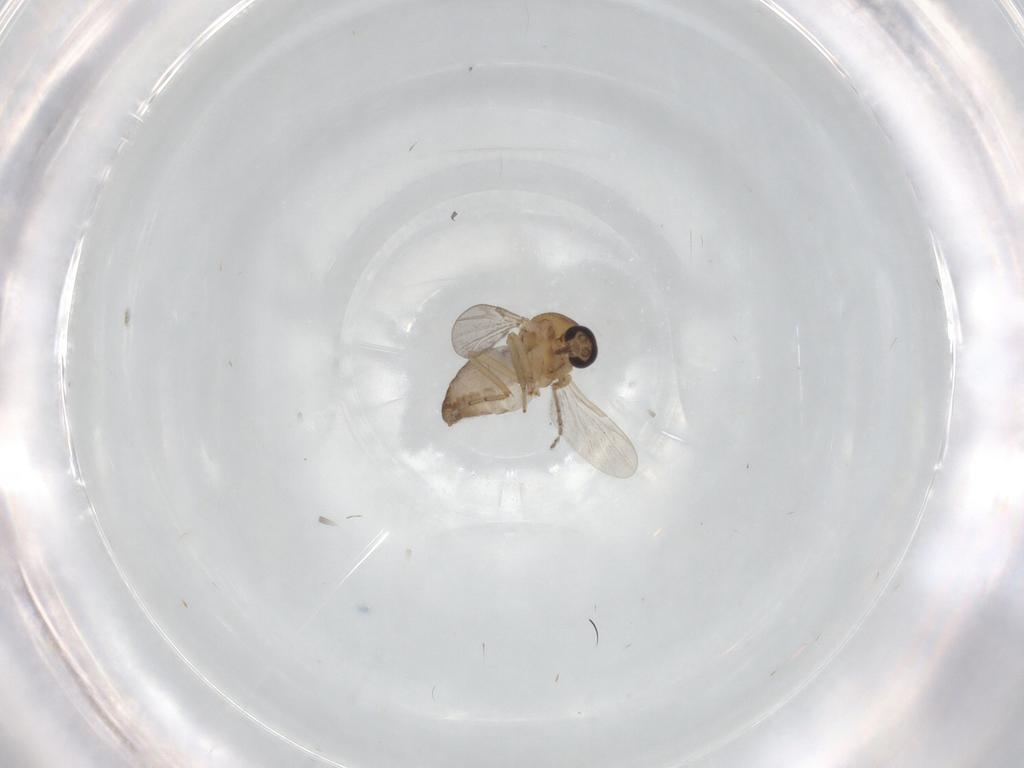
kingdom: Animalia
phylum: Arthropoda
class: Insecta
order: Diptera
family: Ceratopogonidae
